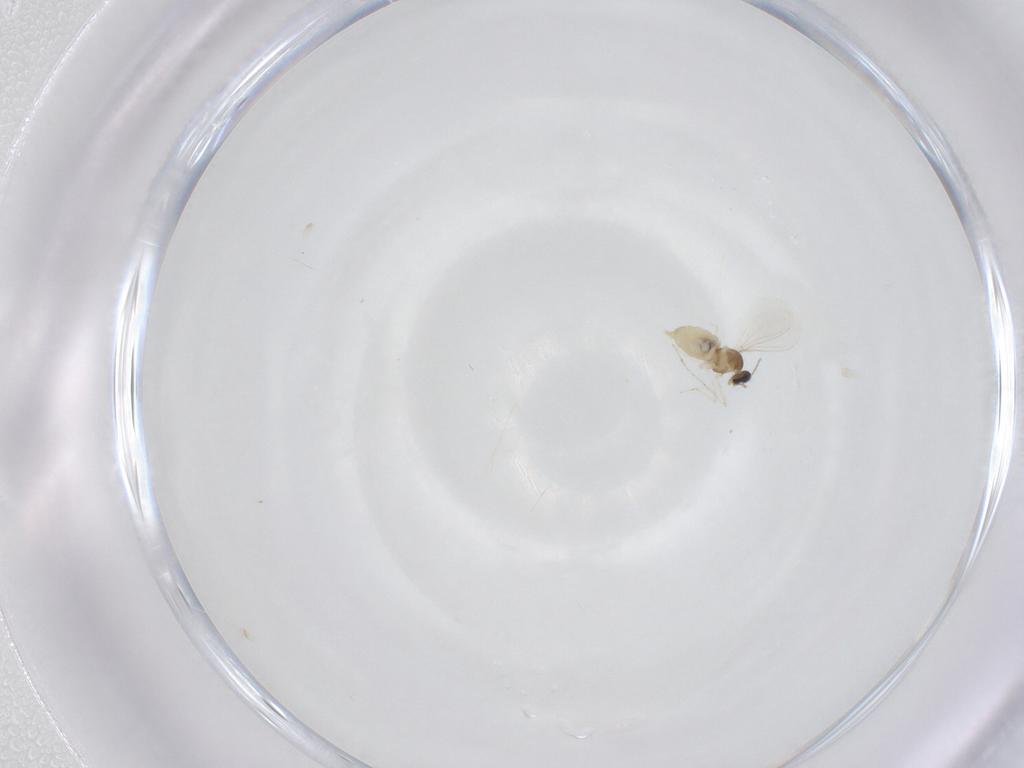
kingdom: Animalia
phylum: Arthropoda
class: Insecta
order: Diptera
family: Cecidomyiidae
